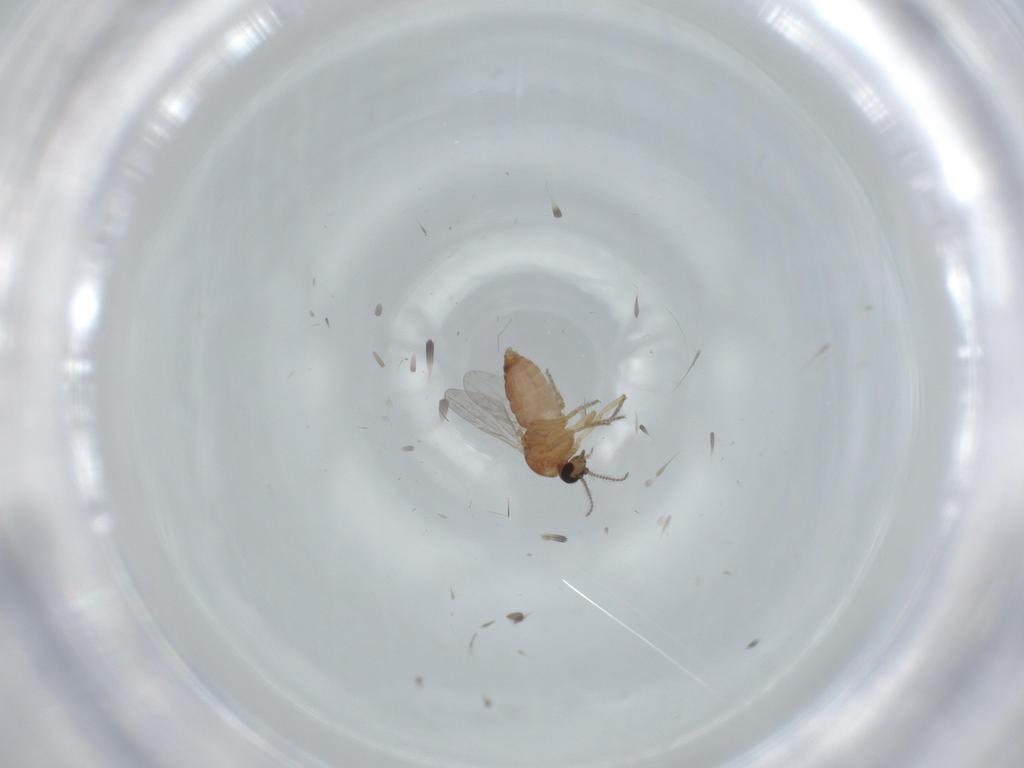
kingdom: Animalia
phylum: Arthropoda
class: Insecta
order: Diptera
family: Ceratopogonidae
